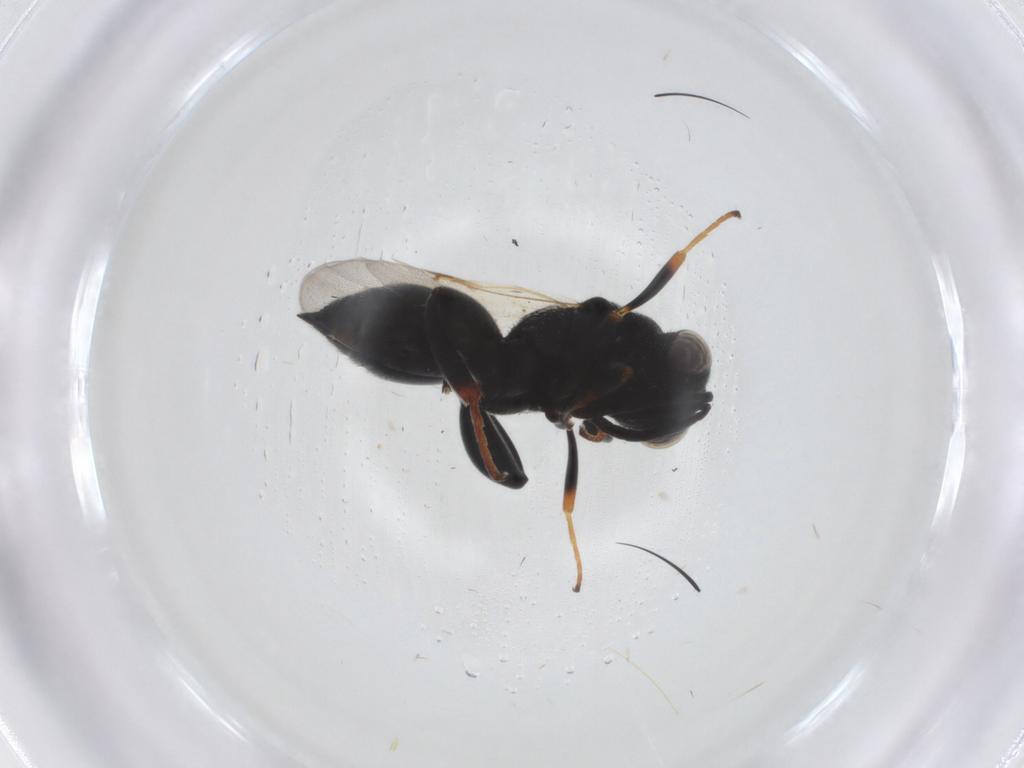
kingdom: Animalia
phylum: Arthropoda
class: Insecta
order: Hymenoptera
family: Chalcididae
